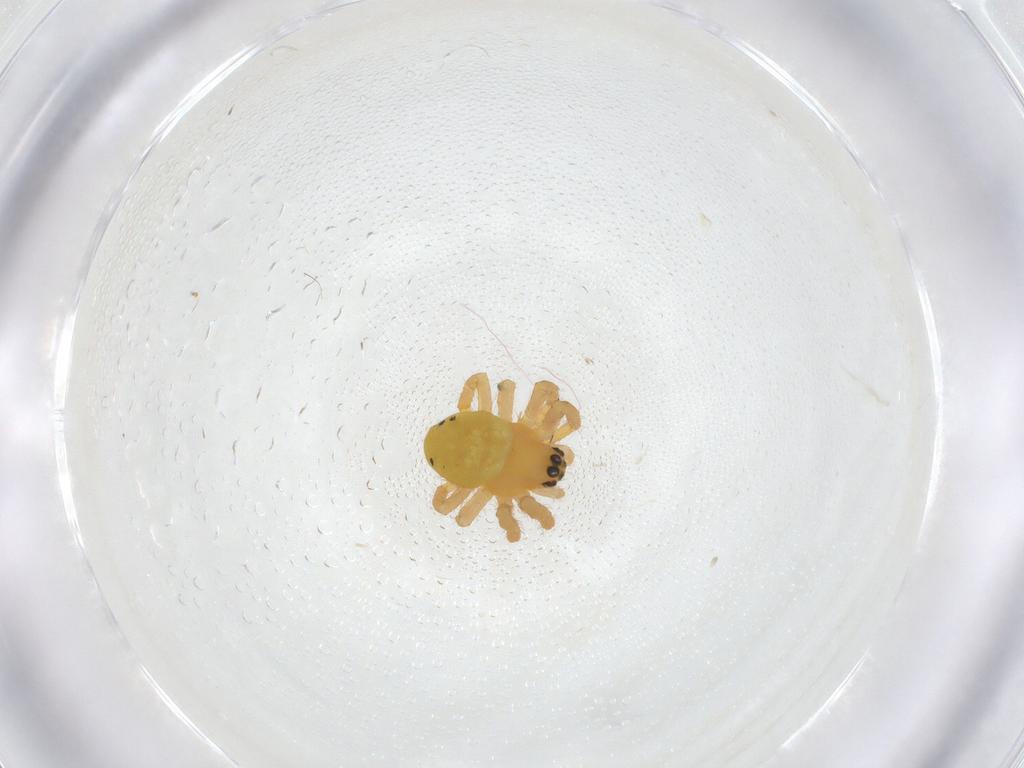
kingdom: Animalia
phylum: Arthropoda
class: Arachnida
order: Araneae
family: Araneidae
